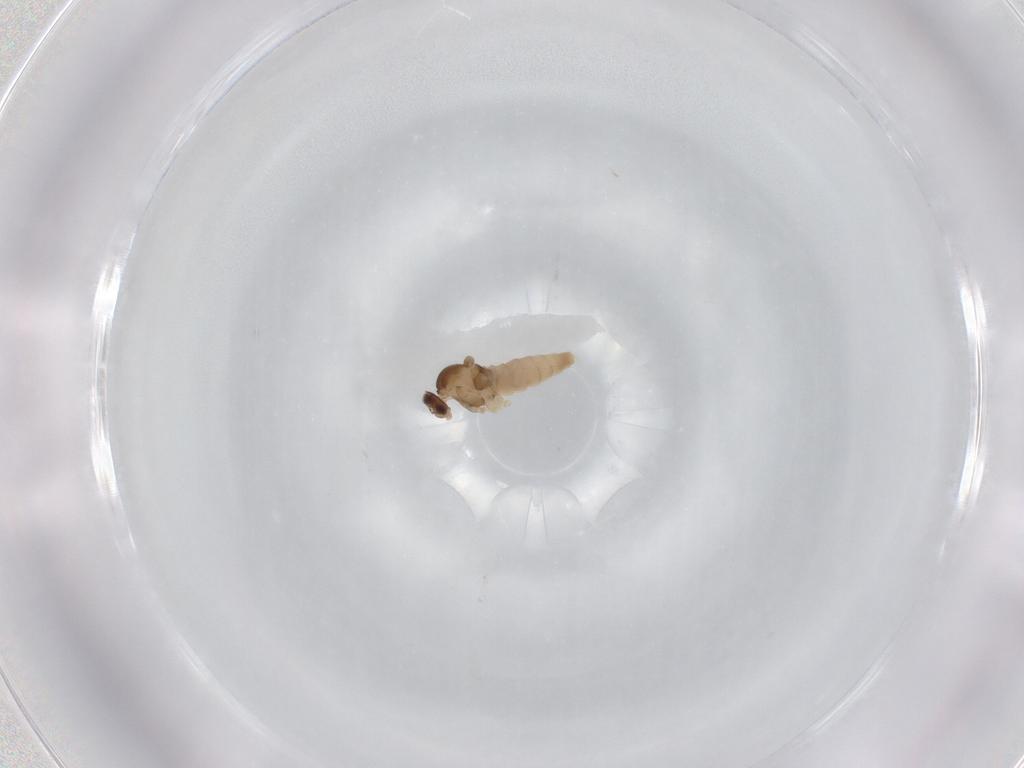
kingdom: Animalia
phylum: Arthropoda
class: Insecta
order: Diptera
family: Cecidomyiidae
